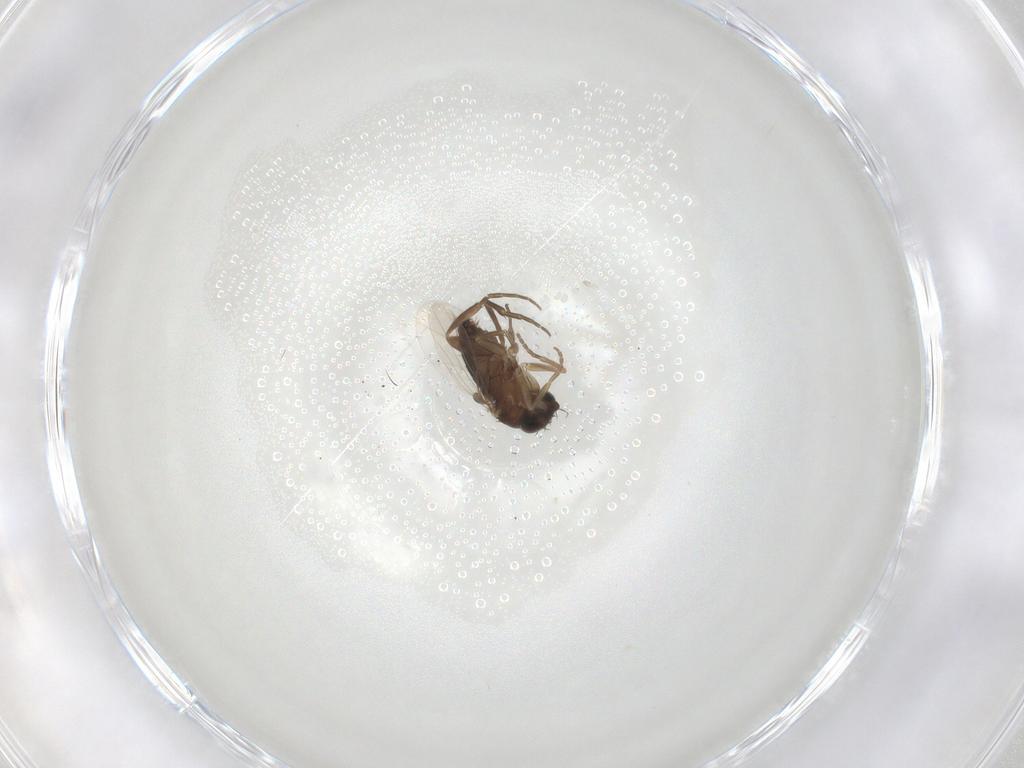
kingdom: Animalia
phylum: Arthropoda
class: Insecta
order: Diptera
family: Phoridae
